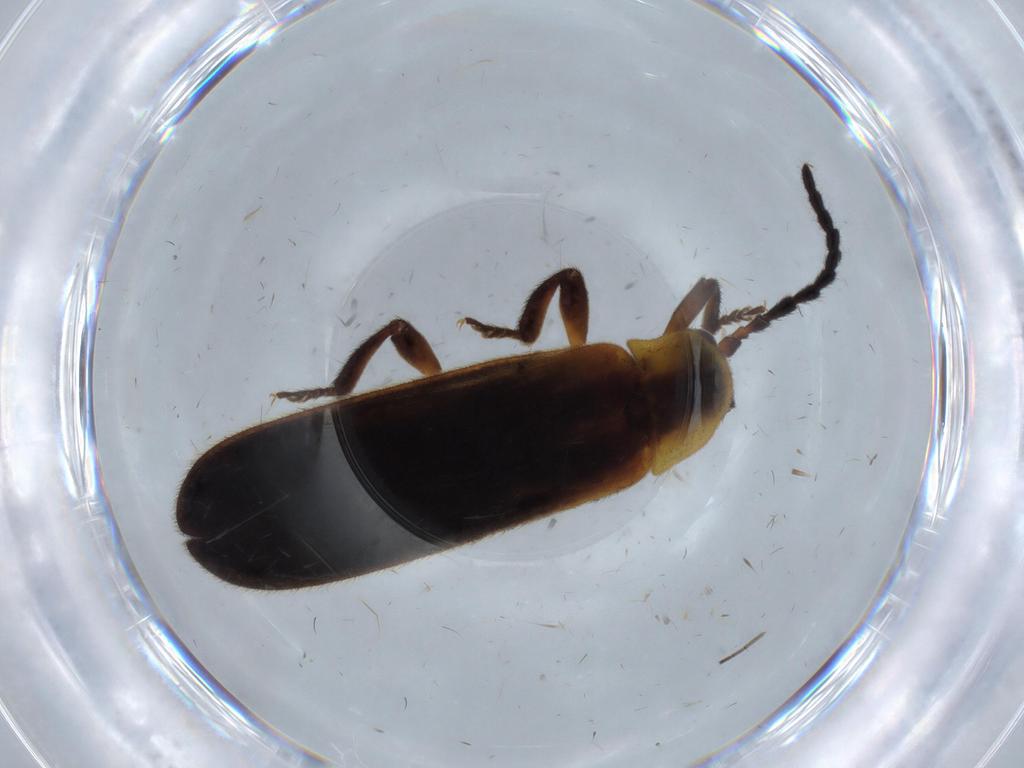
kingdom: Animalia
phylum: Arthropoda
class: Insecta
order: Coleoptera
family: Lycidae
